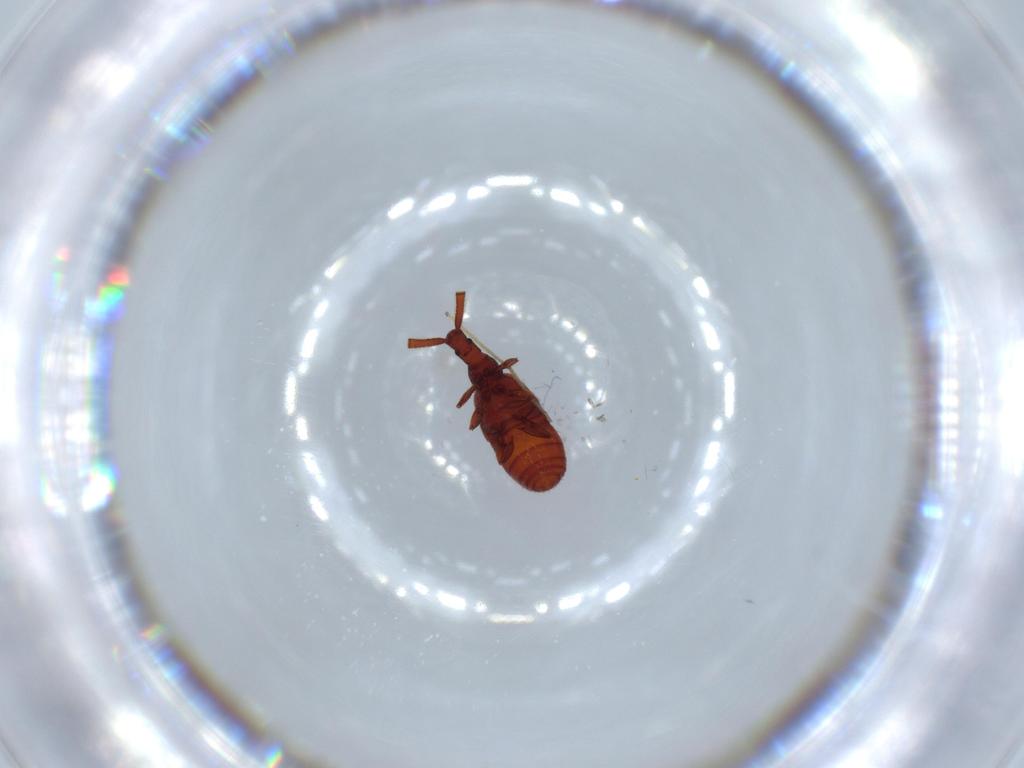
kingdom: Animalia
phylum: Arthropoda
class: Insecta
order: Coleoptera
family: Staphylinidae
